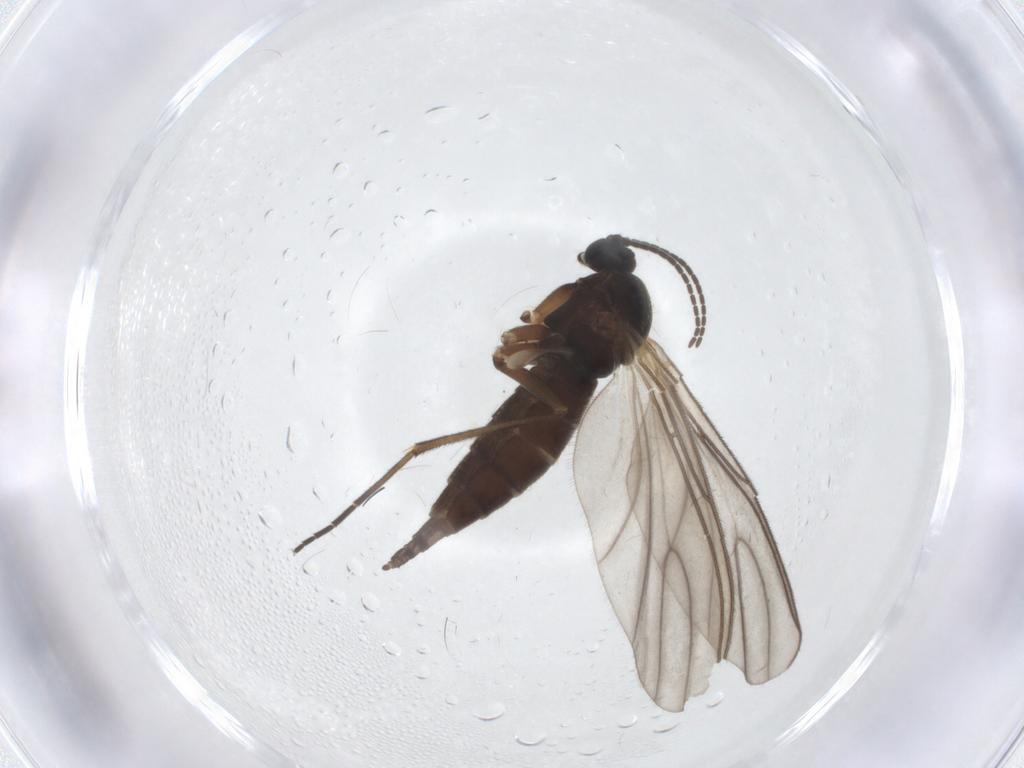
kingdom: Animalia
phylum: Arthropoda
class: Insecta
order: Diptera
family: Sciaridae
